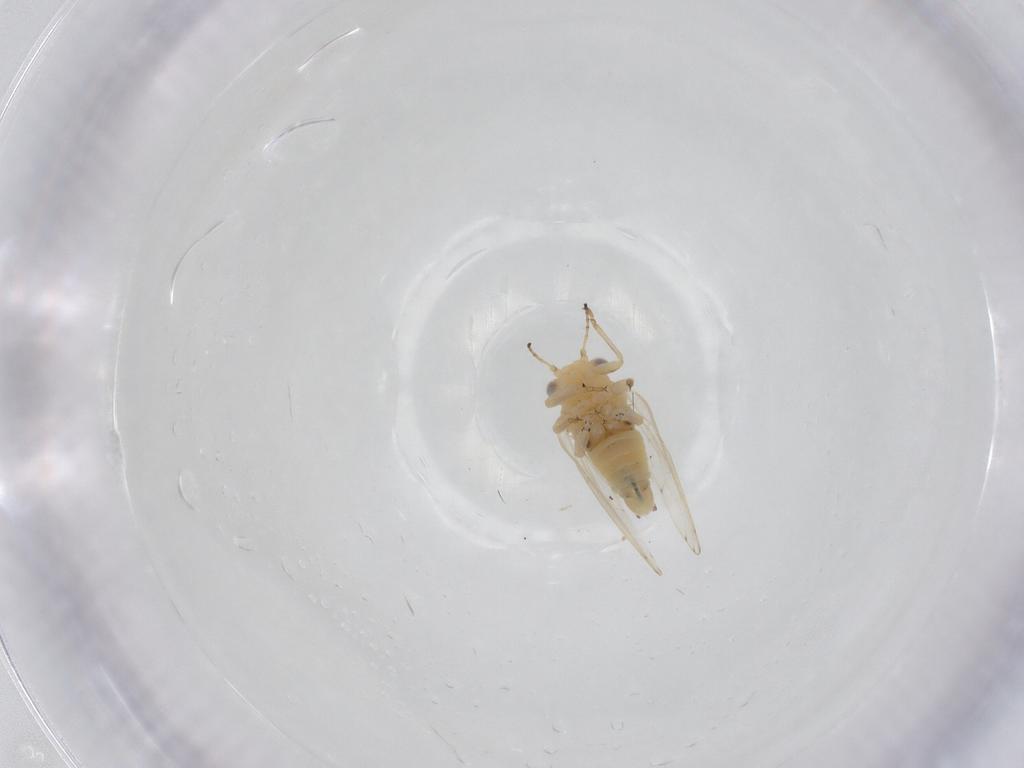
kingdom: Animalia
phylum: Arthropoda
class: Insecta
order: Hemiptera
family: Aphalaridae
